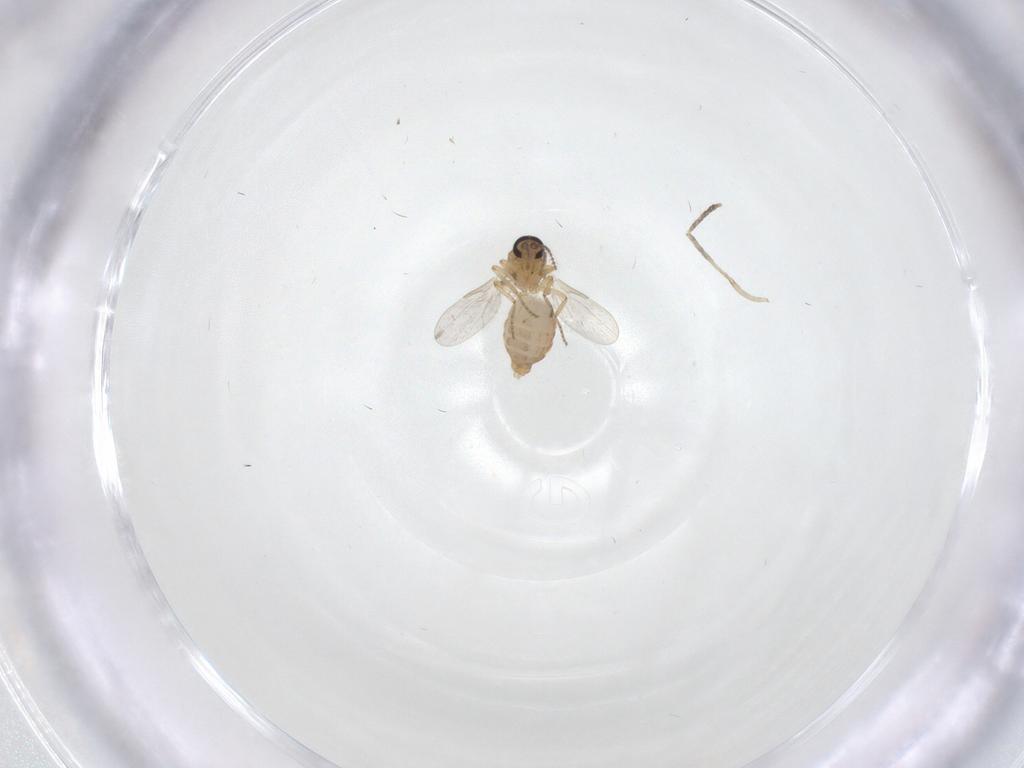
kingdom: Animalia
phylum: Arthropoda
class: Insecta
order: Diptera
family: Ceratopogonidae
